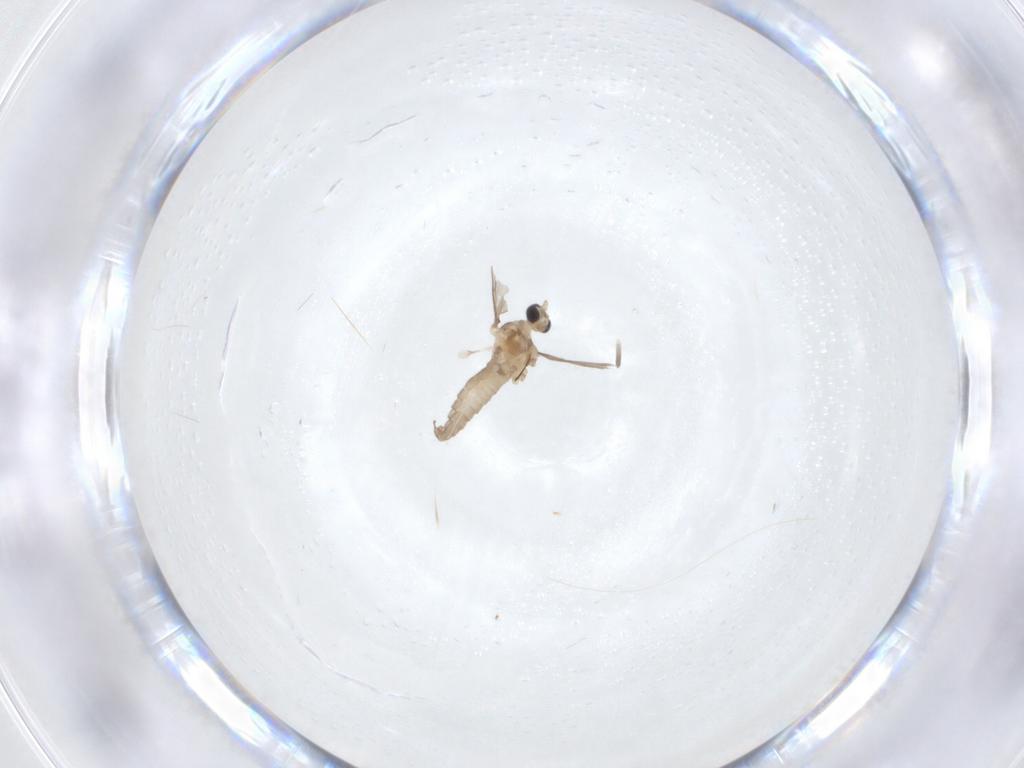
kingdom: Animalia
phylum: Arthropoda
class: Insecta
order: Diptera
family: Cecidomyiidae
